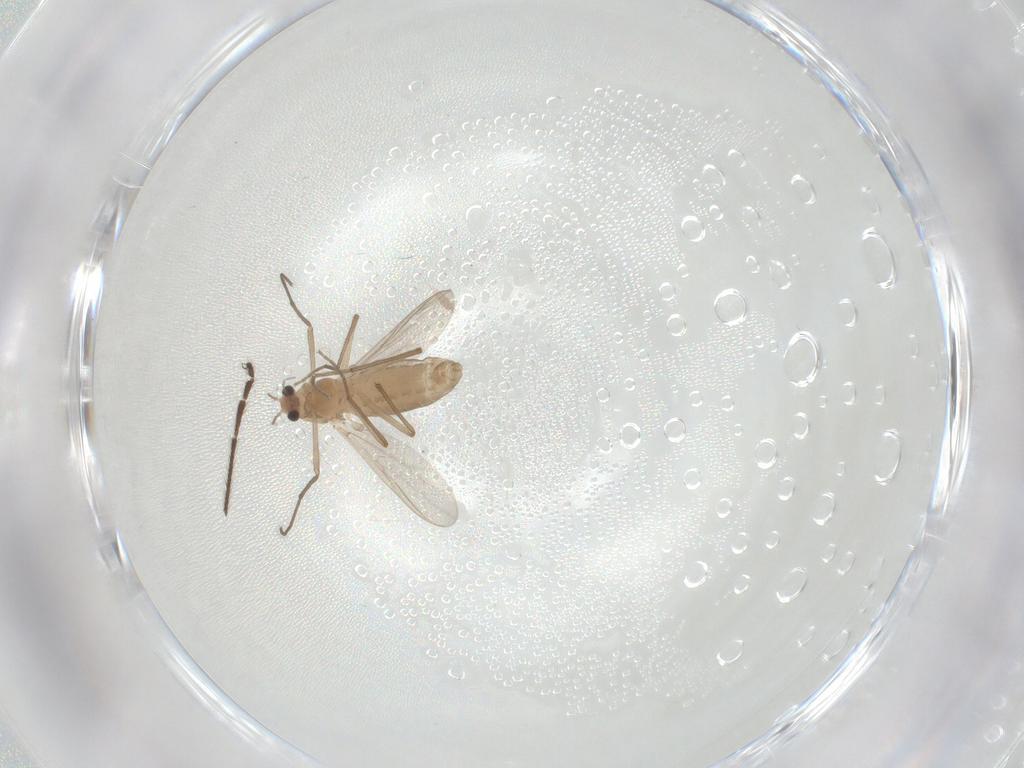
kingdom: Animalia
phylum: Arthropoda
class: Insecta
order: Diptera
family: Chironomidae
